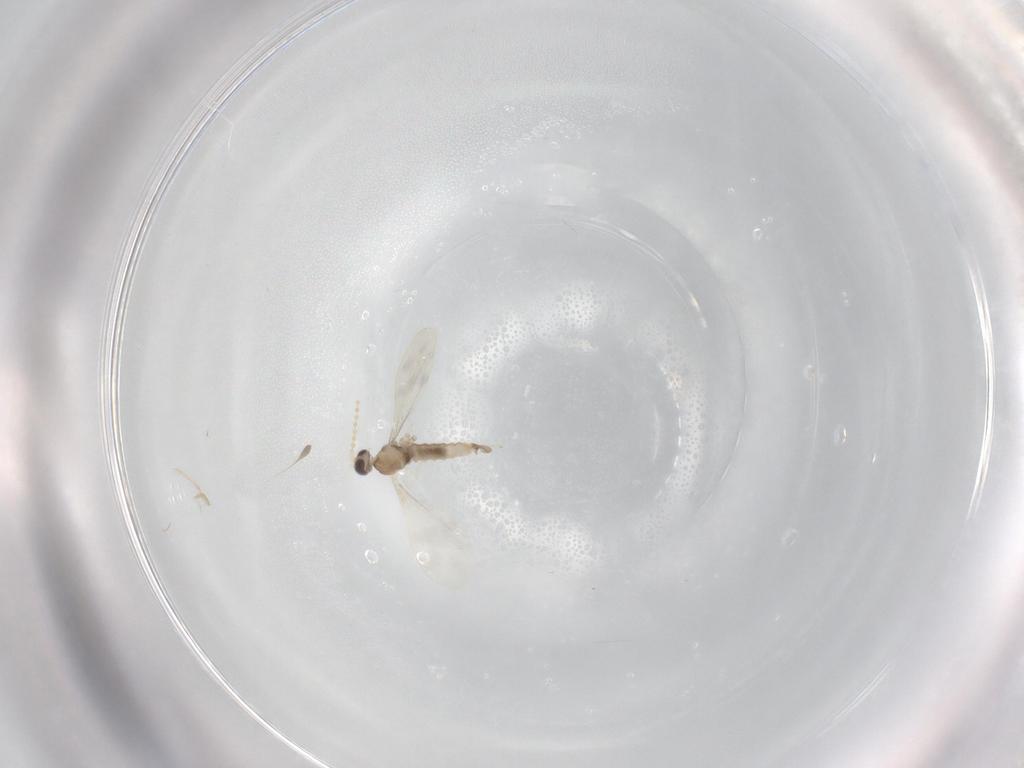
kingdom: Animalia
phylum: Arthropoda
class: Insecta
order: Diptera
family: Cecidomyiidae
